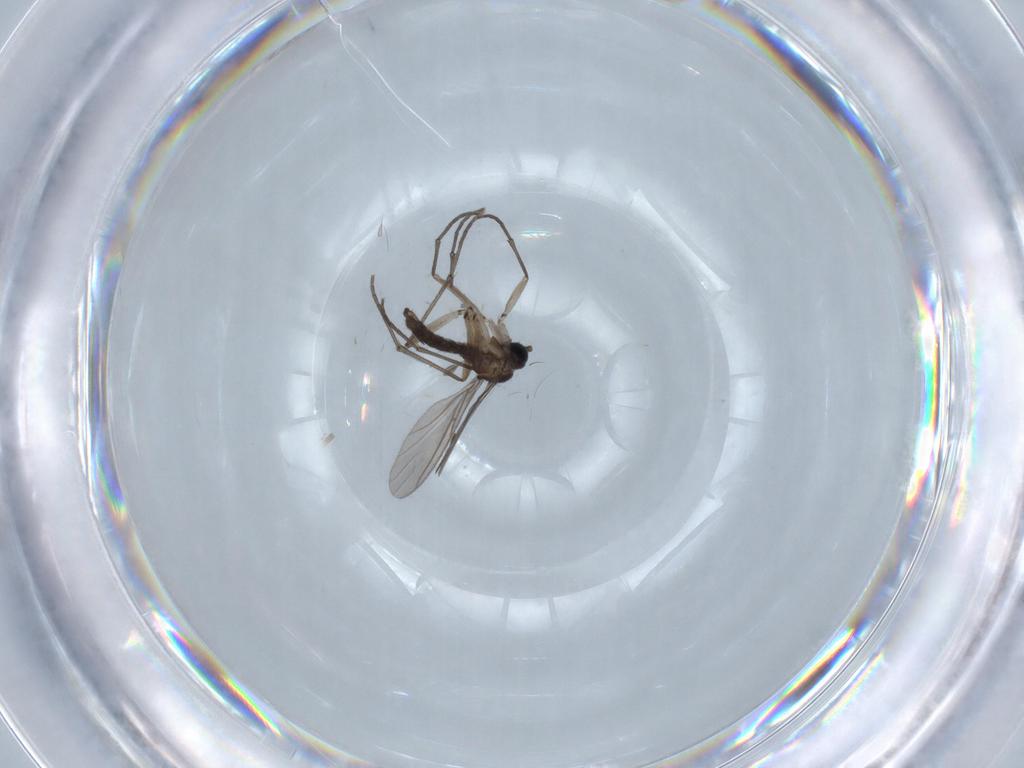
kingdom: Animalia
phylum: Arthropoda
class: Insecta
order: Diptera
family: Sciaridae
